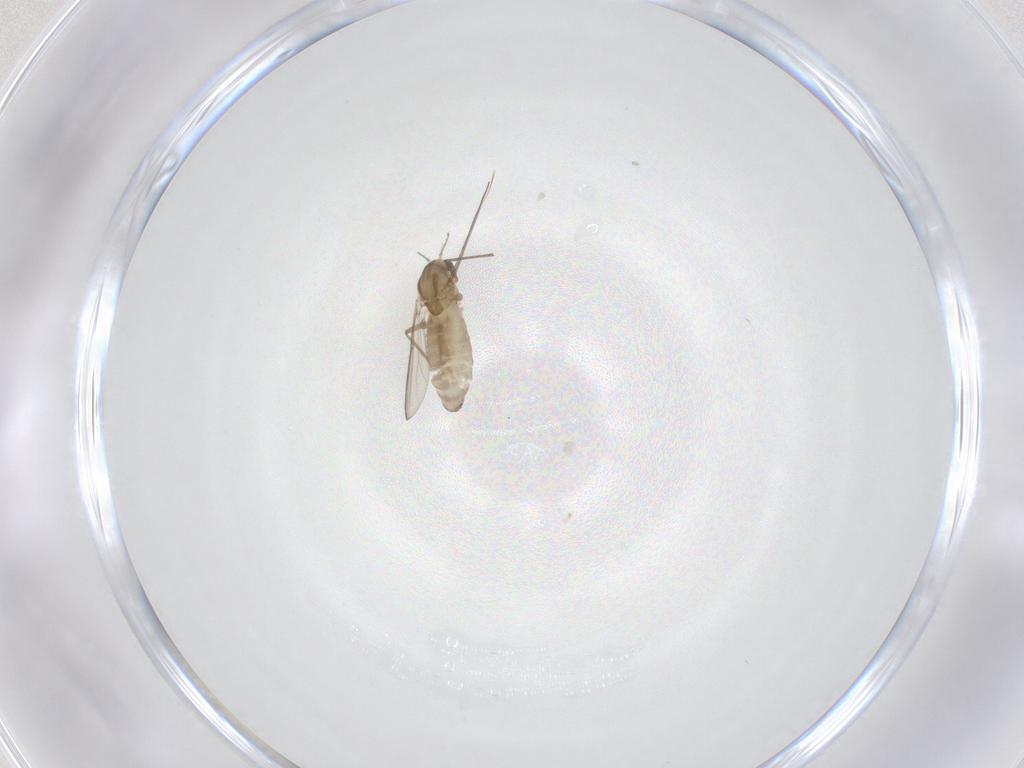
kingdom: Animalia
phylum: Arthropoda
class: Insecta
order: Diptera
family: Chironomidae
